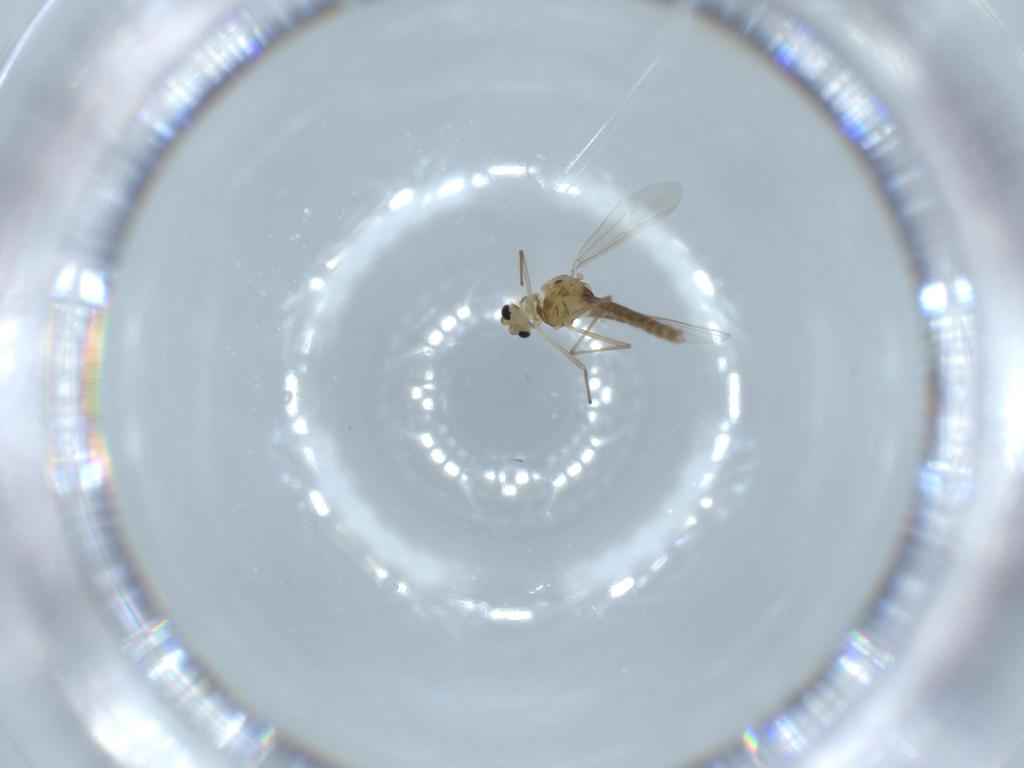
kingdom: Animalia
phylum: Arthropoda
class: Insecta
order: Diptera
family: Chironomidae
